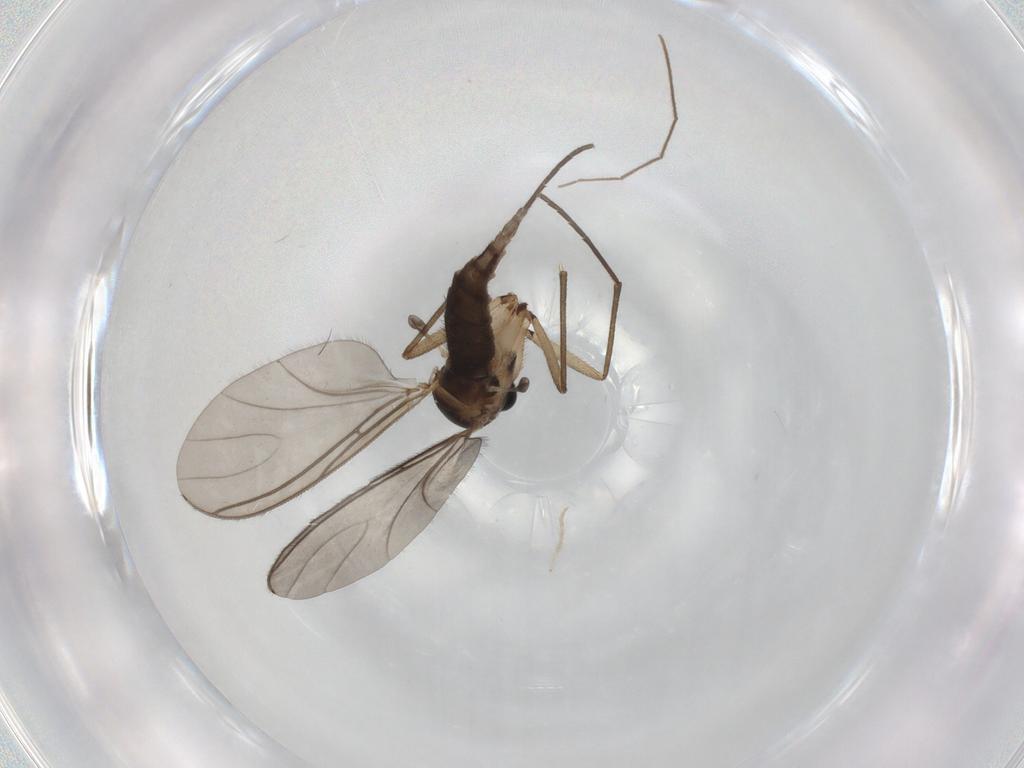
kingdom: Animalia
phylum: Arthropoda
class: Insecta
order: Diptera
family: Sciaridae
